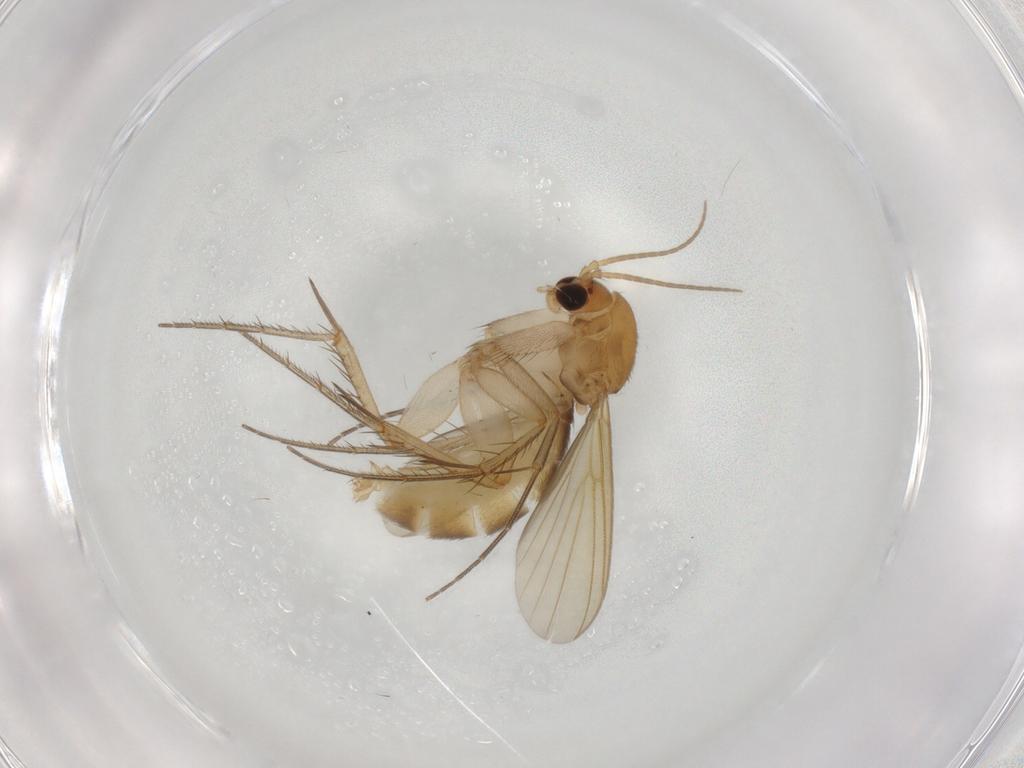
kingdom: Animalia
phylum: Arthropoda
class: Insecta
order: Diptera
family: Mycetophilidae
